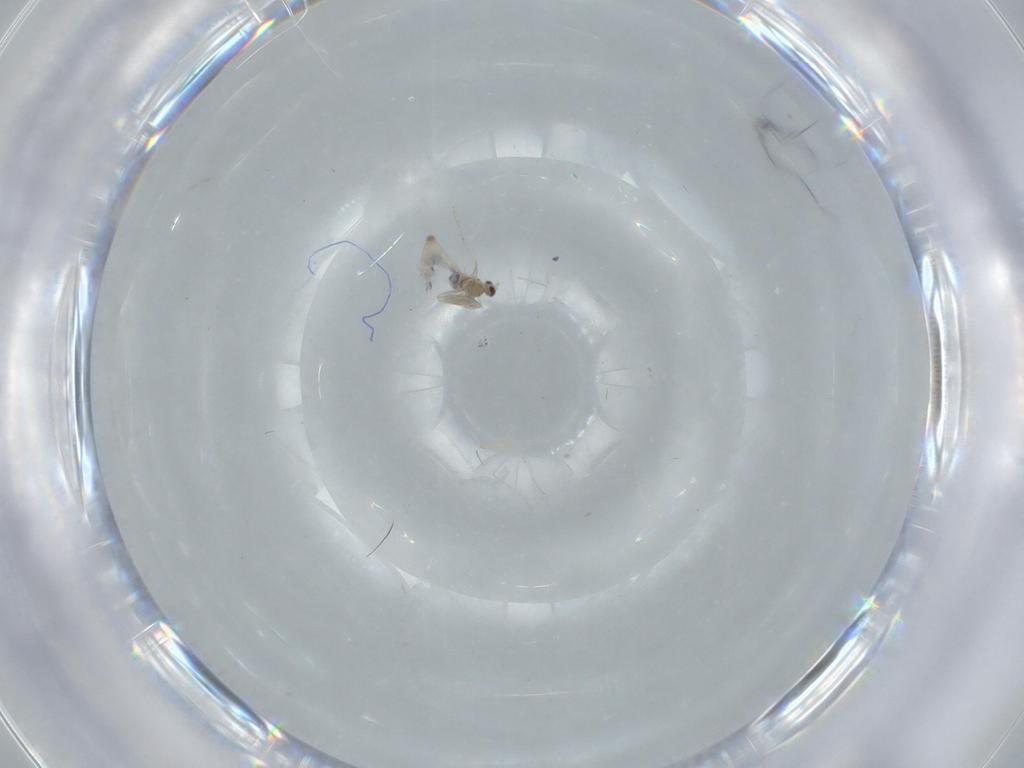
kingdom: Animalia
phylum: Arthropoda
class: Insecta
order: Diptera
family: Cecidomyiidae
